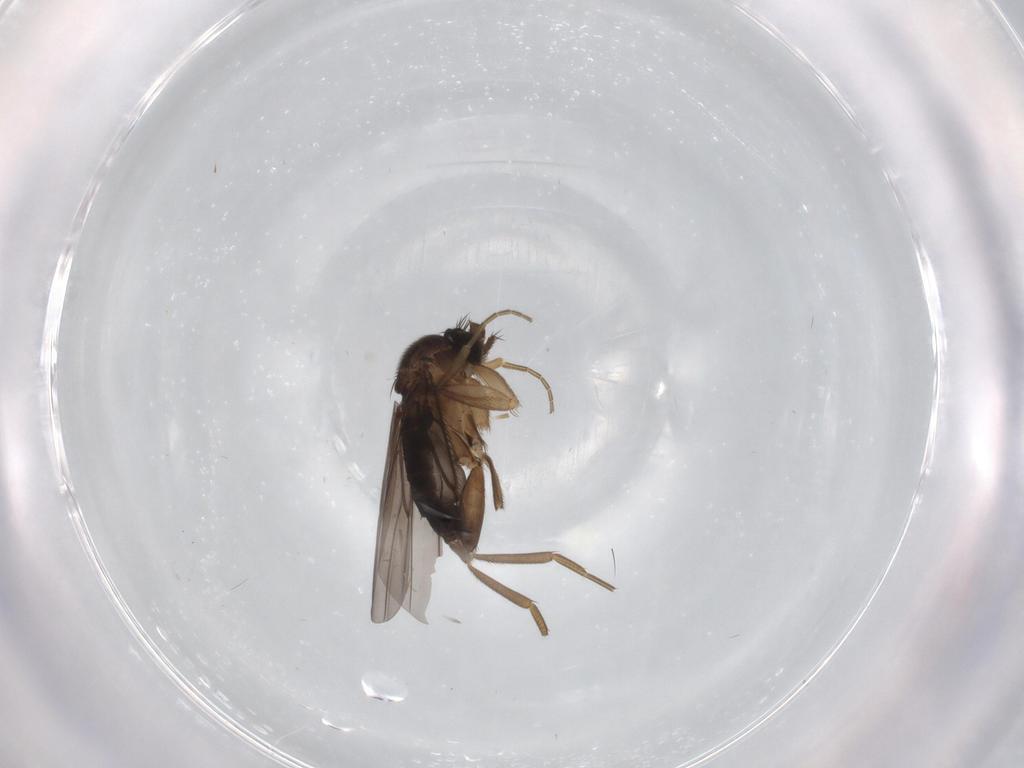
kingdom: Animalia
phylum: Arthropoda
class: Insecta
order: Diptera
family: Phoridae
